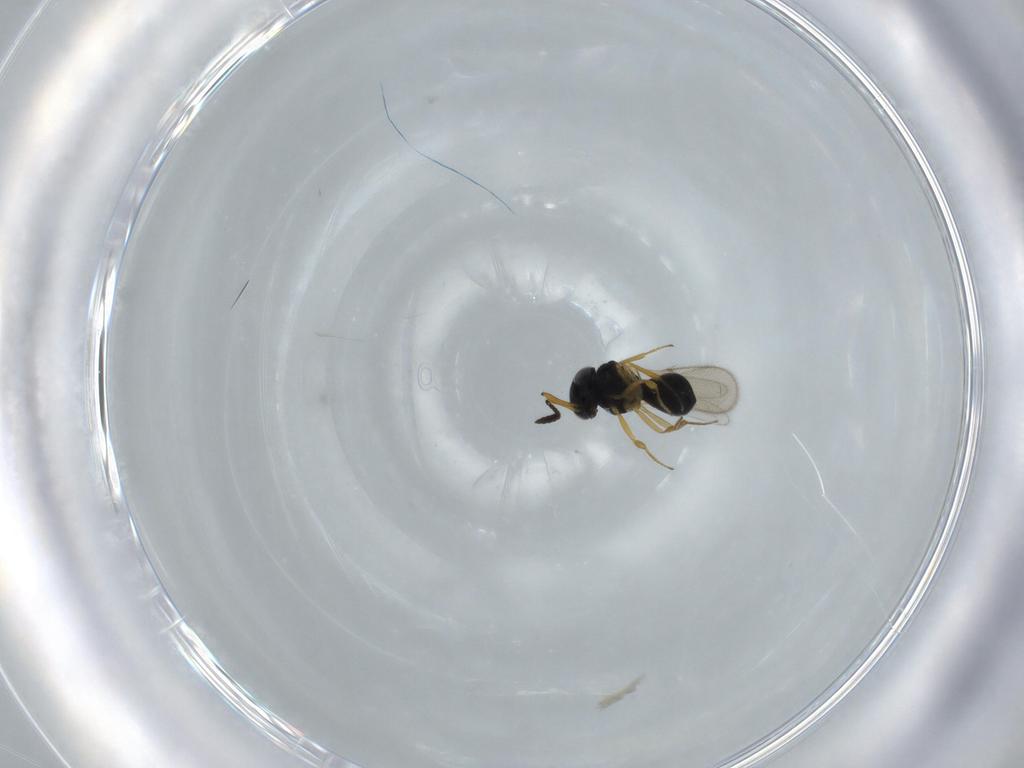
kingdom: Animalia
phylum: Arthropoda
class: Insecta
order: Hymenoptera
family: Scelionidae
